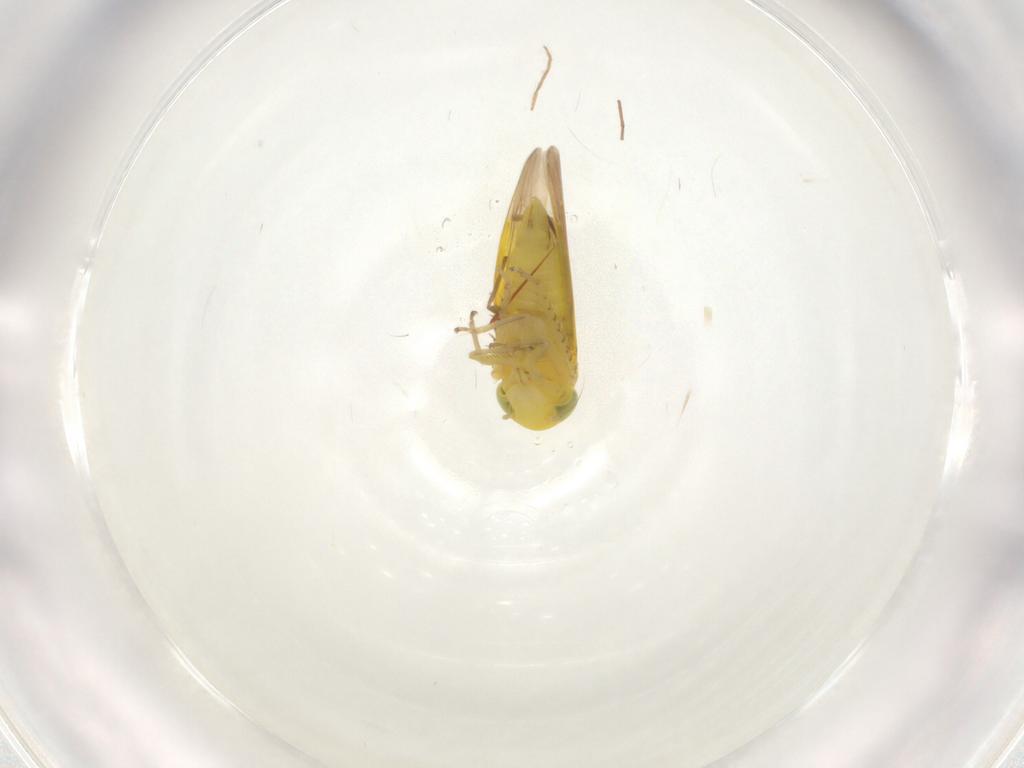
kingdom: Animalia
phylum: Arthropoda
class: Insecta
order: Hemiptera
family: Cicadellidae
